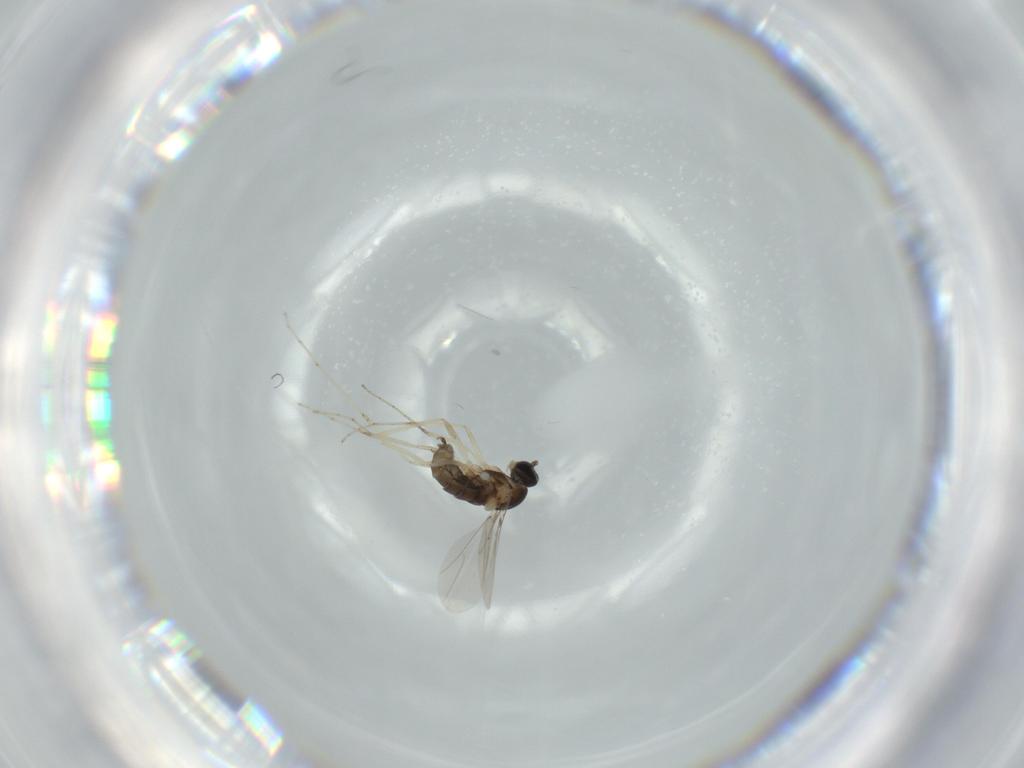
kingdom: Animalia
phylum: Arthropoda
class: Insecta
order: Diptera
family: Cecidomyiidae
